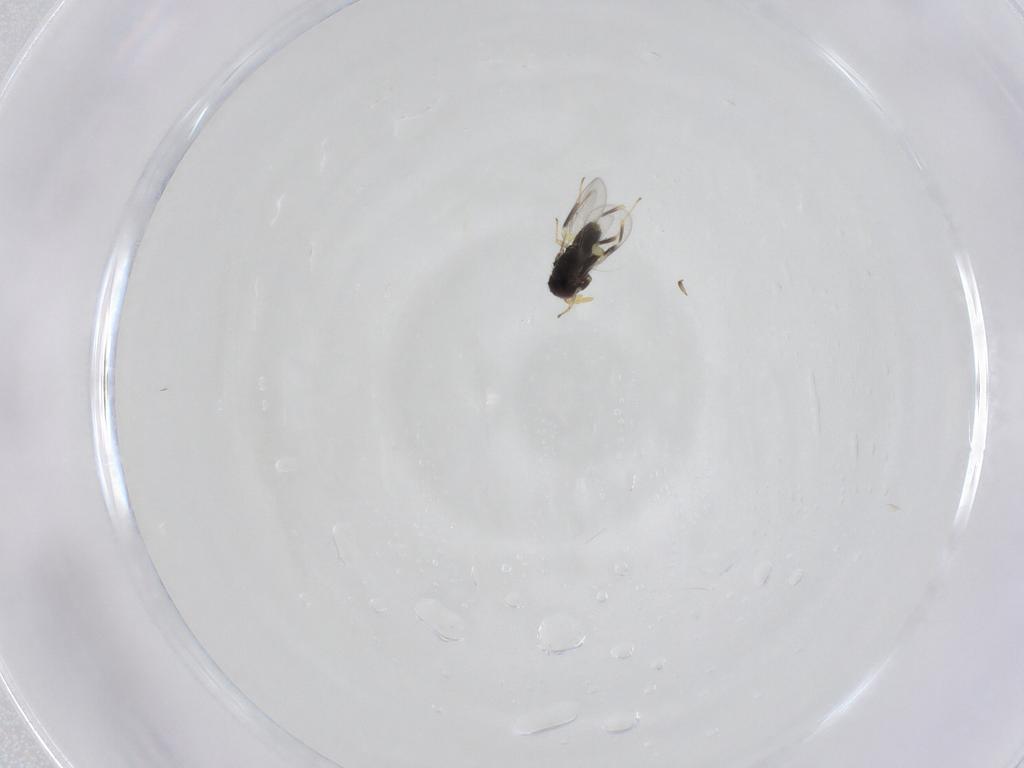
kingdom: Animalia
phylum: Arthropoda
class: Insecta
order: Hymenoptera
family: Aphelinidae
